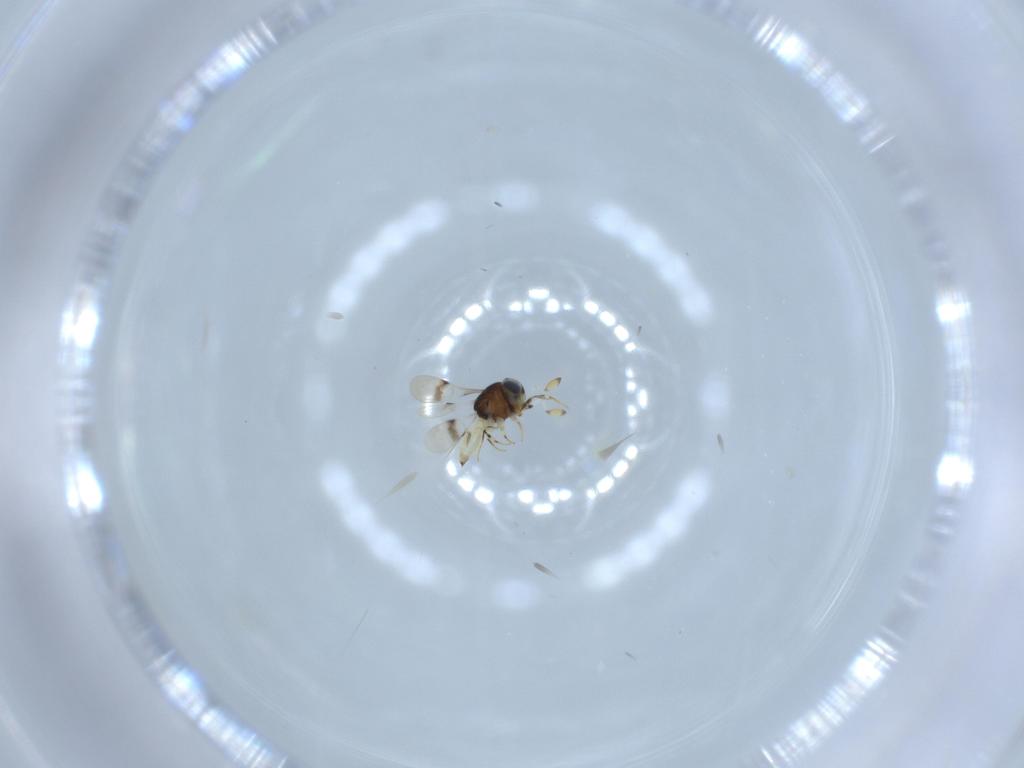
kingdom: Animalia
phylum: Arthropoda
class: Insecta
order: Hymenoptera
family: Scelionidae
